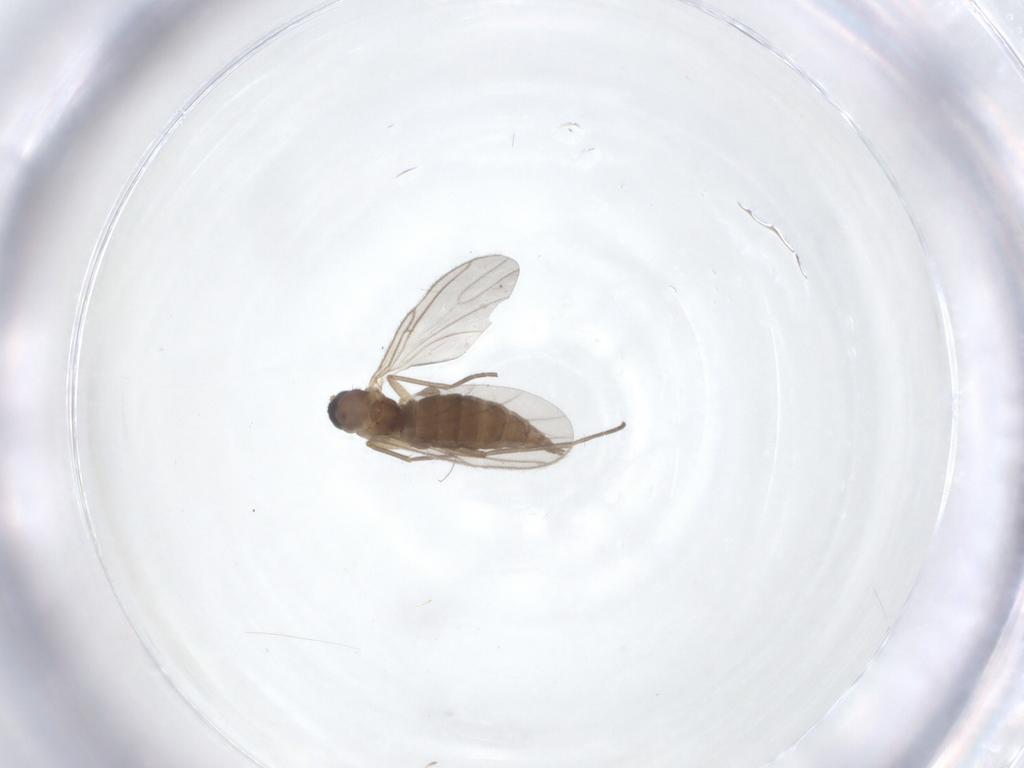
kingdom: Animalia
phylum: Arthropoda
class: Insecta
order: Diptera
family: Sciaridae
